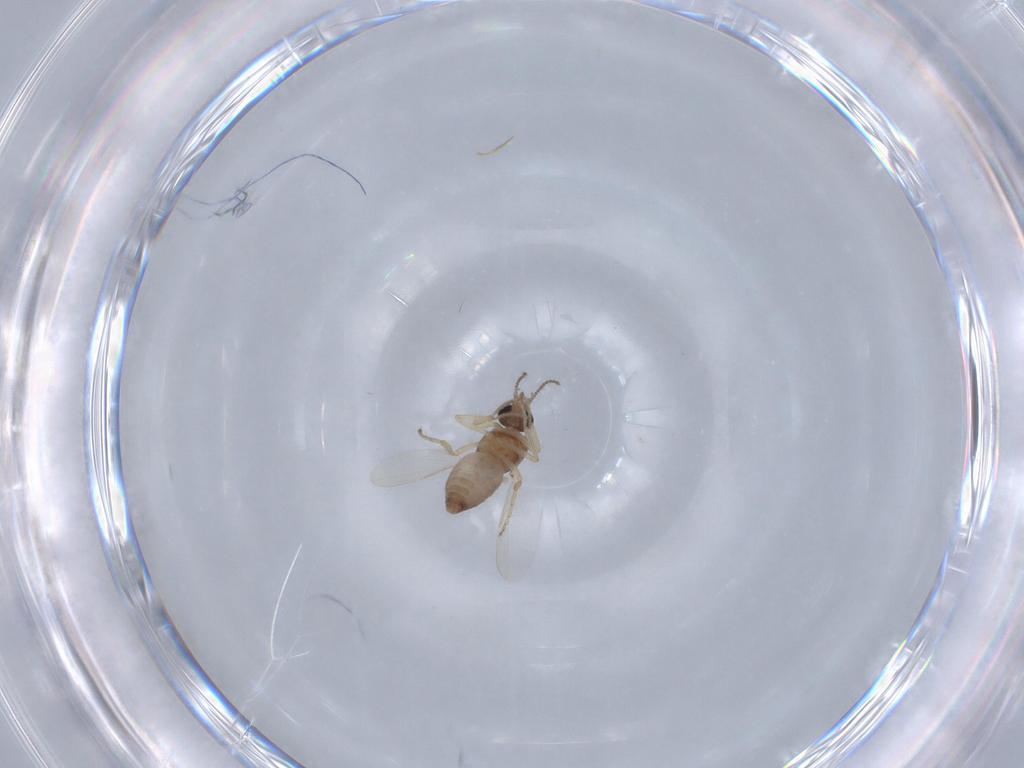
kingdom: Animalia
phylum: Arthropoda
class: Insecta
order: Diptera
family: Ceratopogonidae
